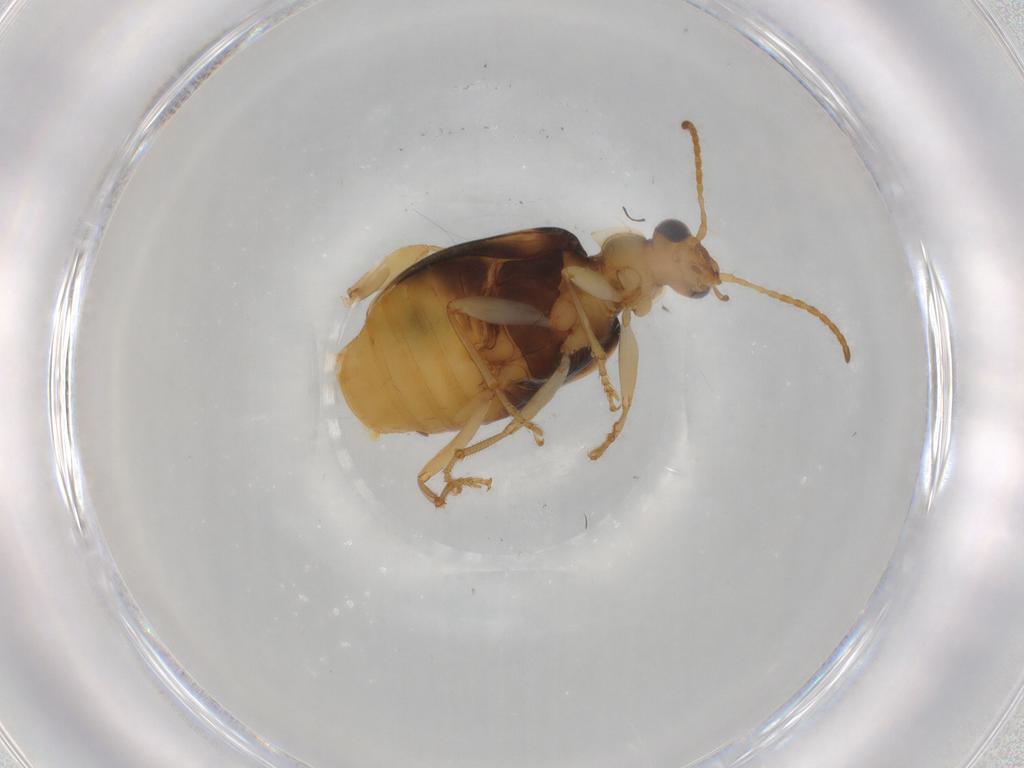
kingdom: Animalia
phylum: Arthropoda
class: Insecta
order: Coleoptera
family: Carabidae
